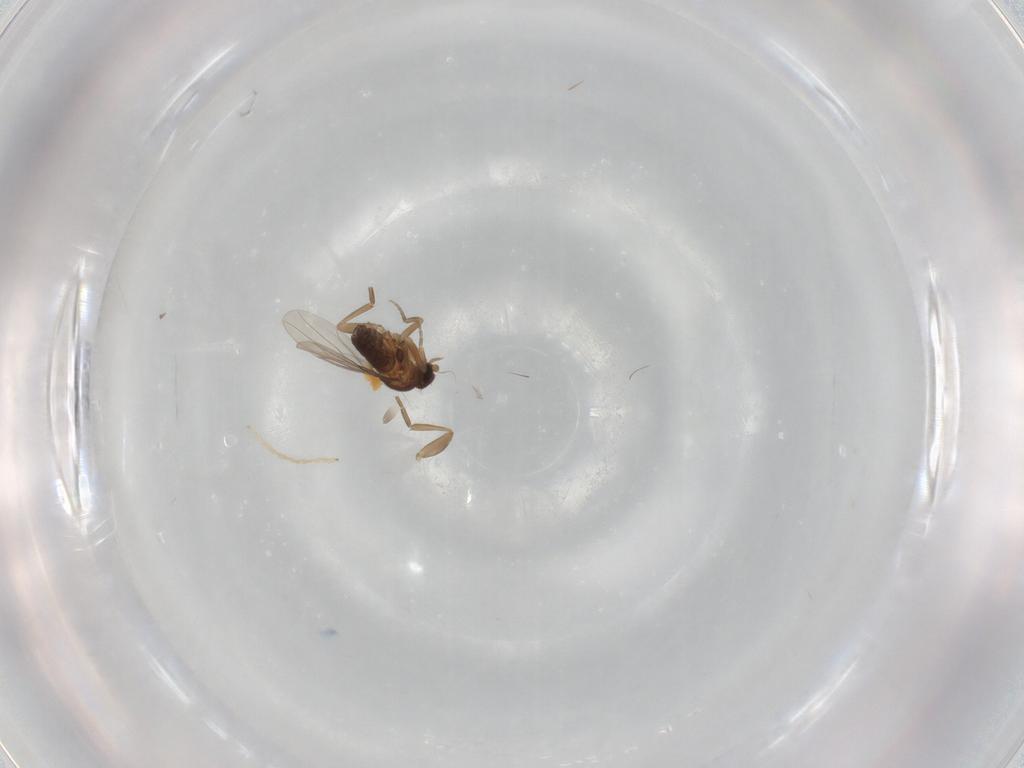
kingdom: Animalia
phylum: Arthropoda
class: Insecta
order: Diptera
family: Phoridae
